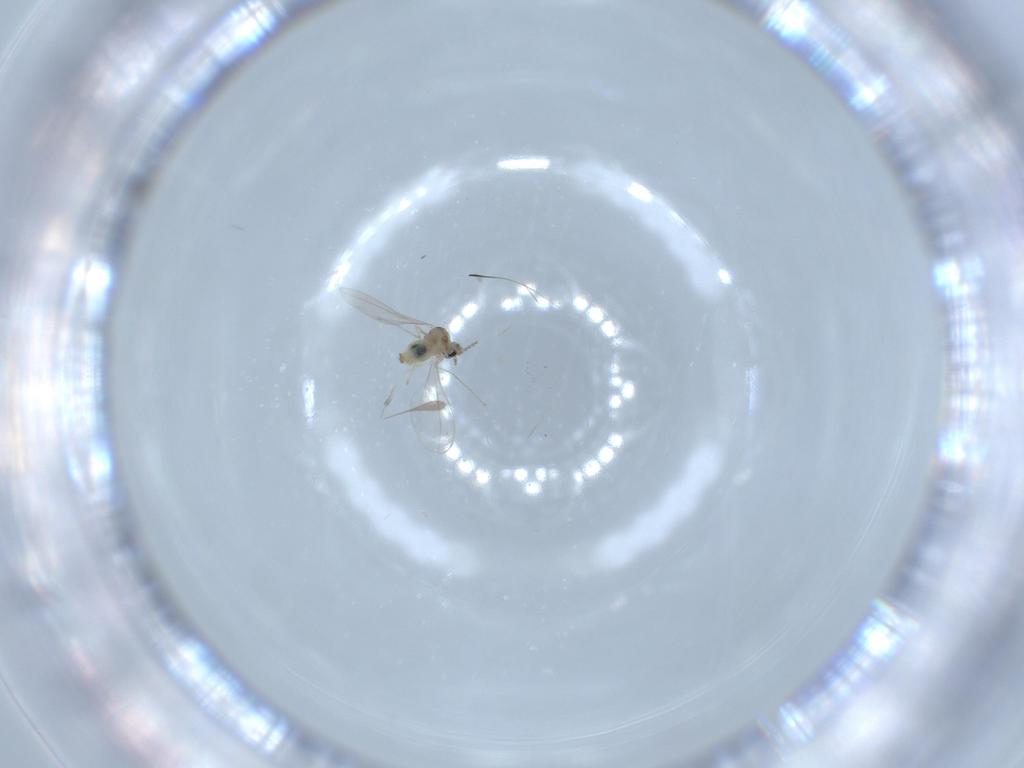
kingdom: Animalia
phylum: Arthropoda
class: Insecta
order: Diptera
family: Cecidomyiidae
